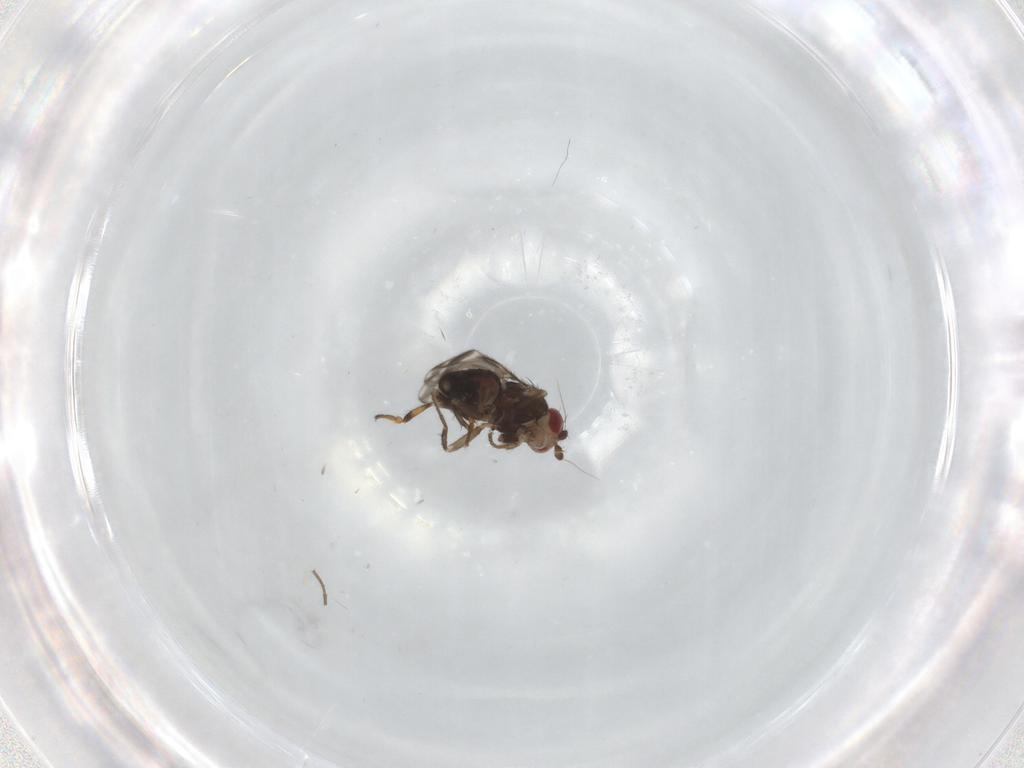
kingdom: Animalia
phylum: Arthropoda
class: Insecta
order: Diptera
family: Sphaeroceridae
